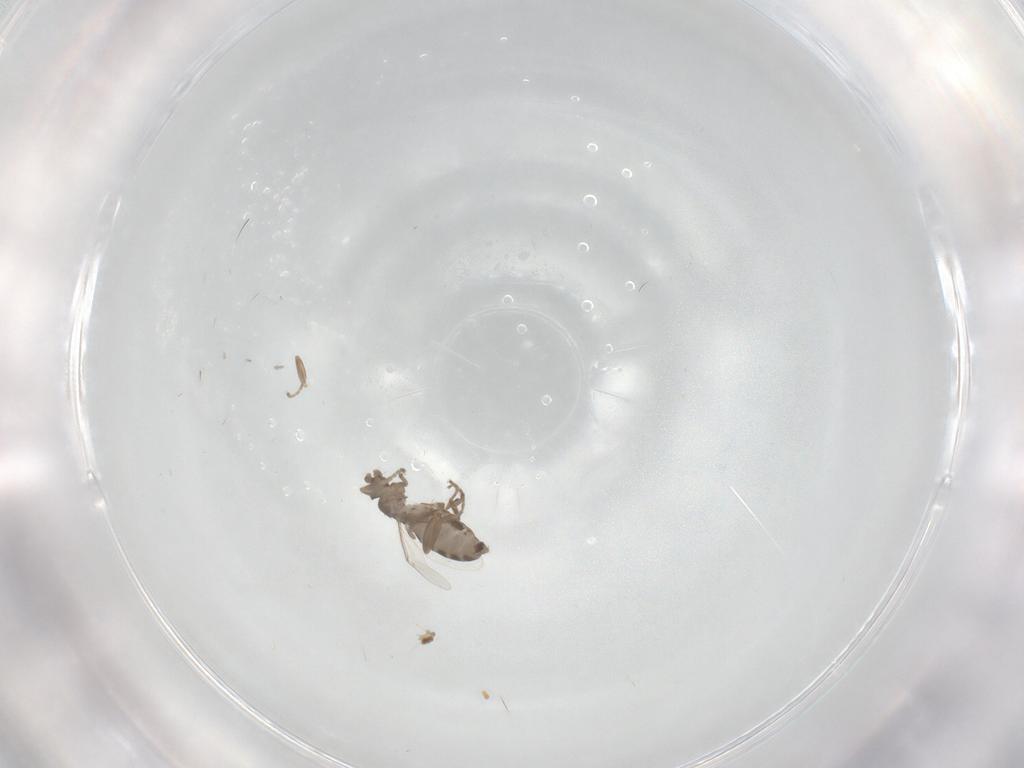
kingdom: Animalia
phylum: Arthropoda
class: Insecta
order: Diptera
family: Phoridae
